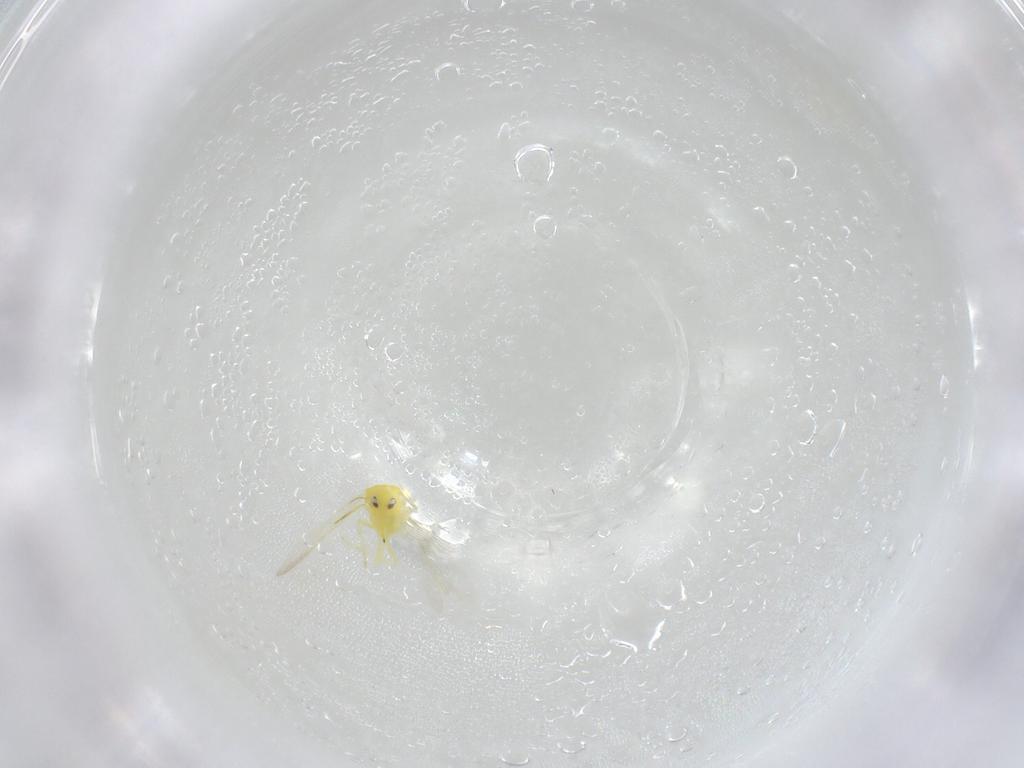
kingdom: Animalia
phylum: Arthropoda
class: Insecta
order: Hemiptera
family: Aleyrodidae
